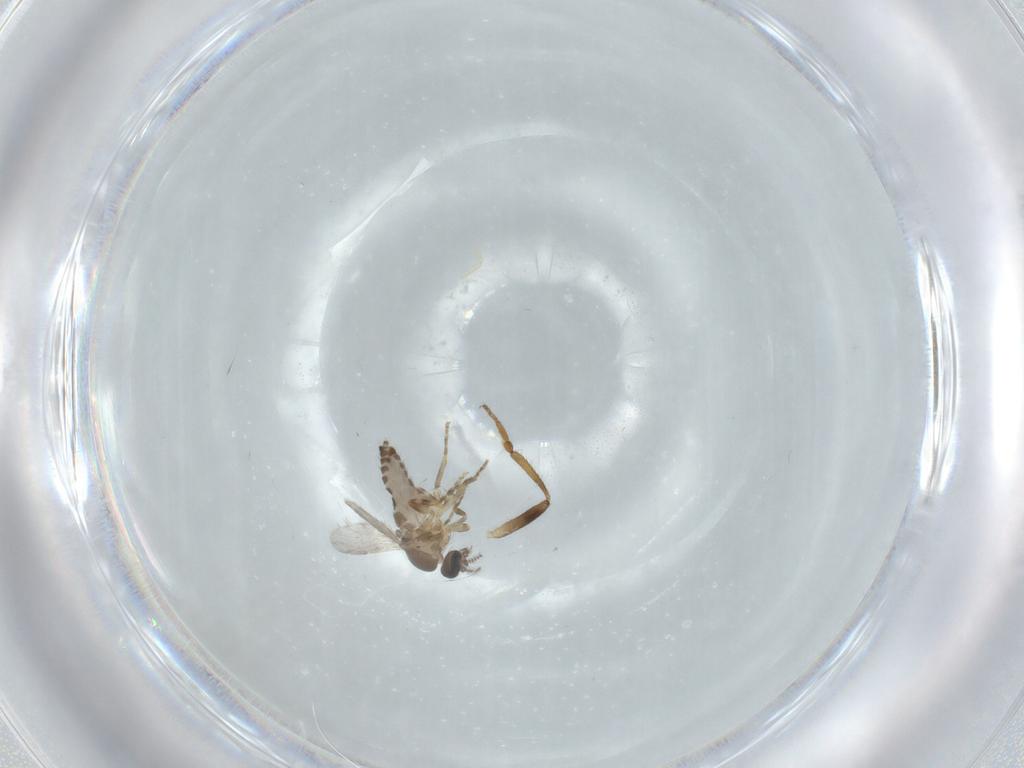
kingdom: Animalia
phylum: Arthropoda
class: Insecta
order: Diptera
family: Ceratopogonidae
